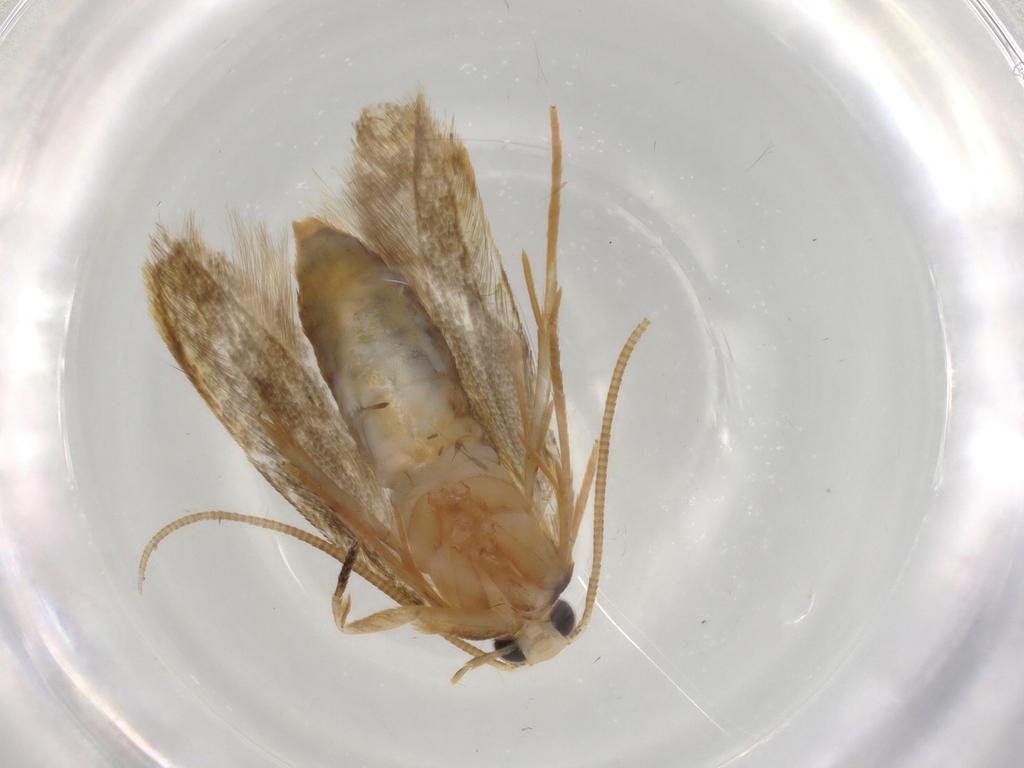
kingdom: Animalia
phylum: Arthropoda
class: Insecta
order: Lepidoptera
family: Tineidae
